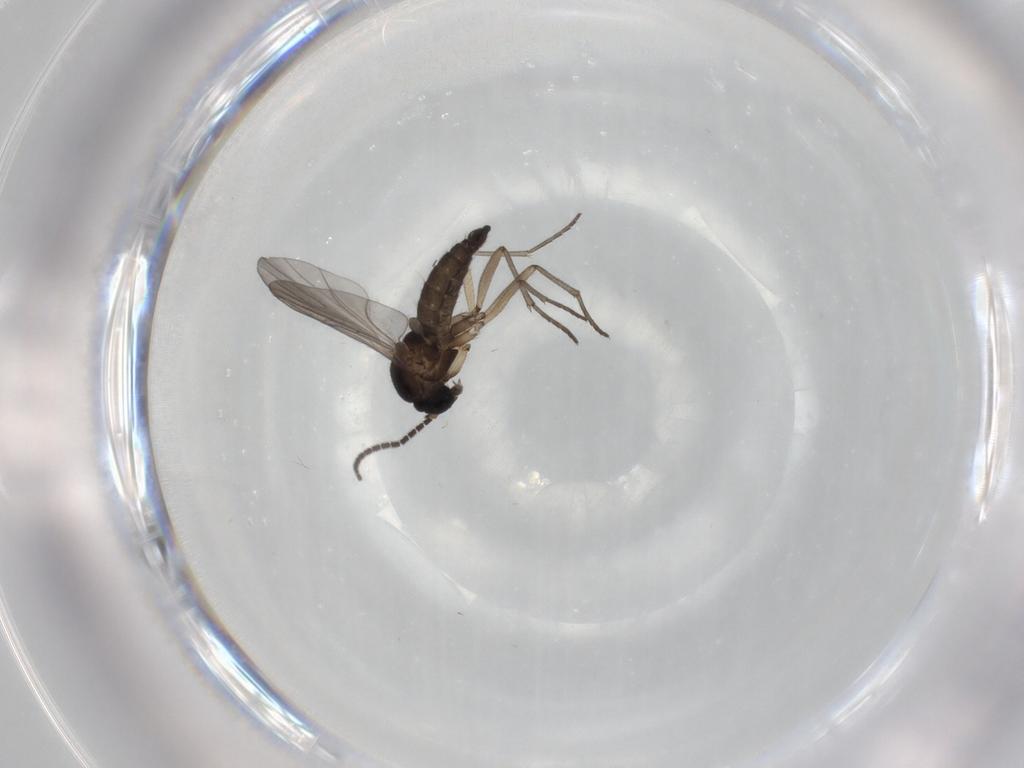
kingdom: Animalia
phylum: Arthropoda
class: Insecta
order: Diptera
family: Sciaridae
